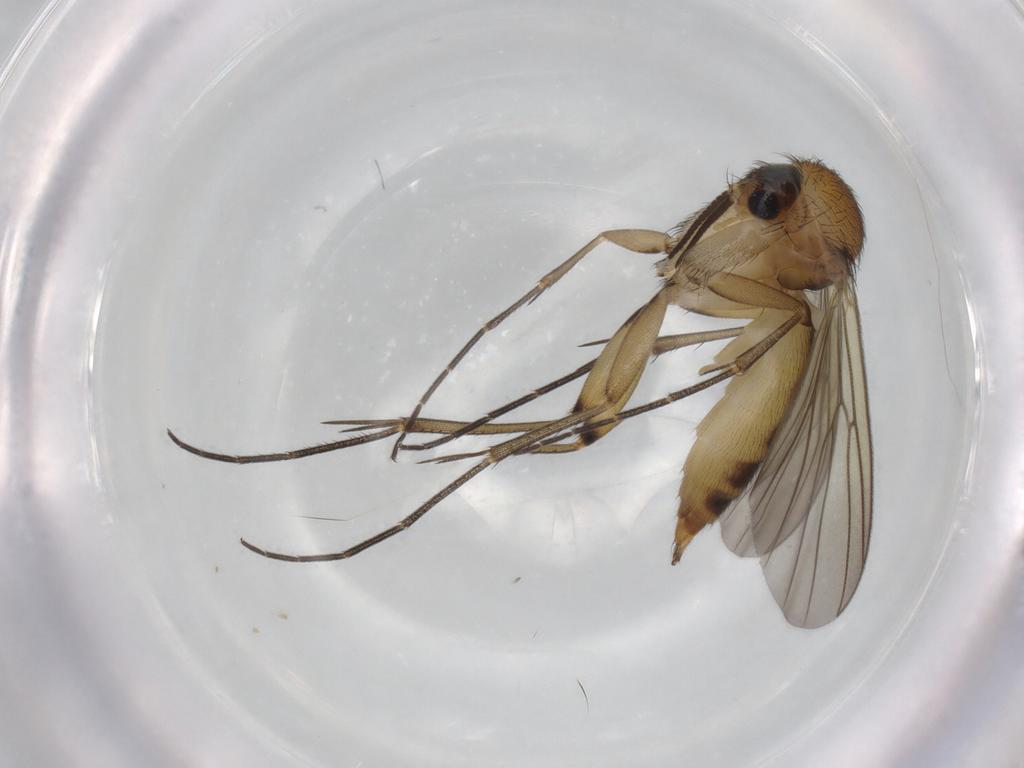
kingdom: Animalia
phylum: Arthropoda
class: Insecta
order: Diptera
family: Mycetophilidae
